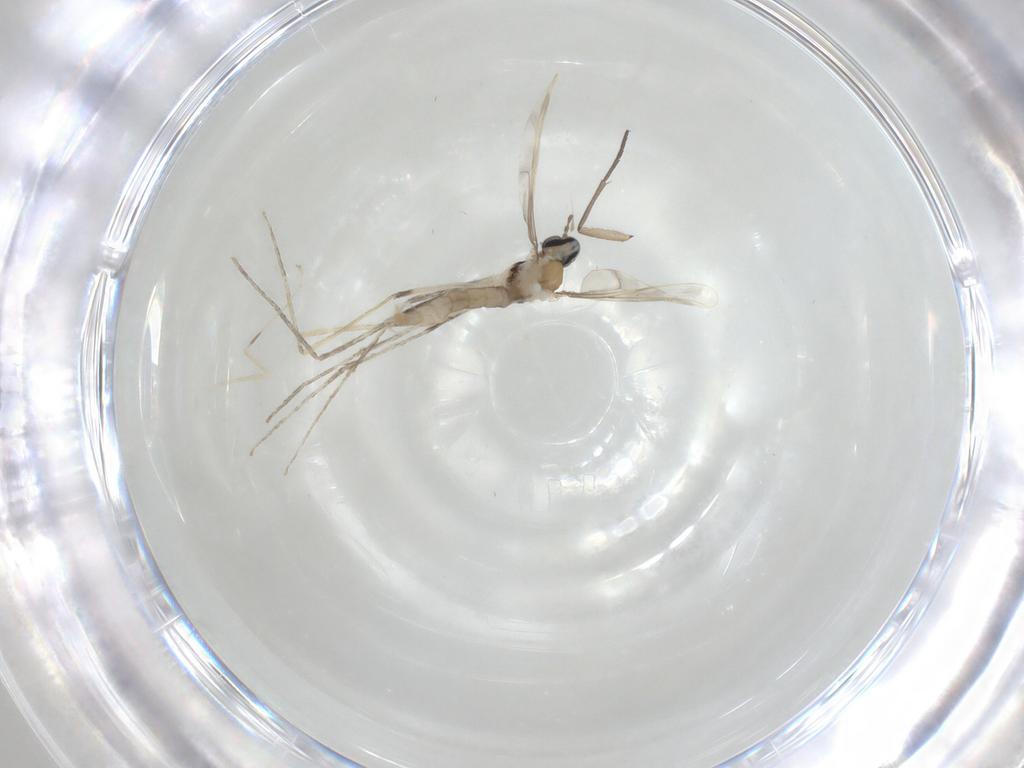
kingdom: Animalia
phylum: Arthropoda
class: Insecta
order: Diptera
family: Cecidomyiidae
